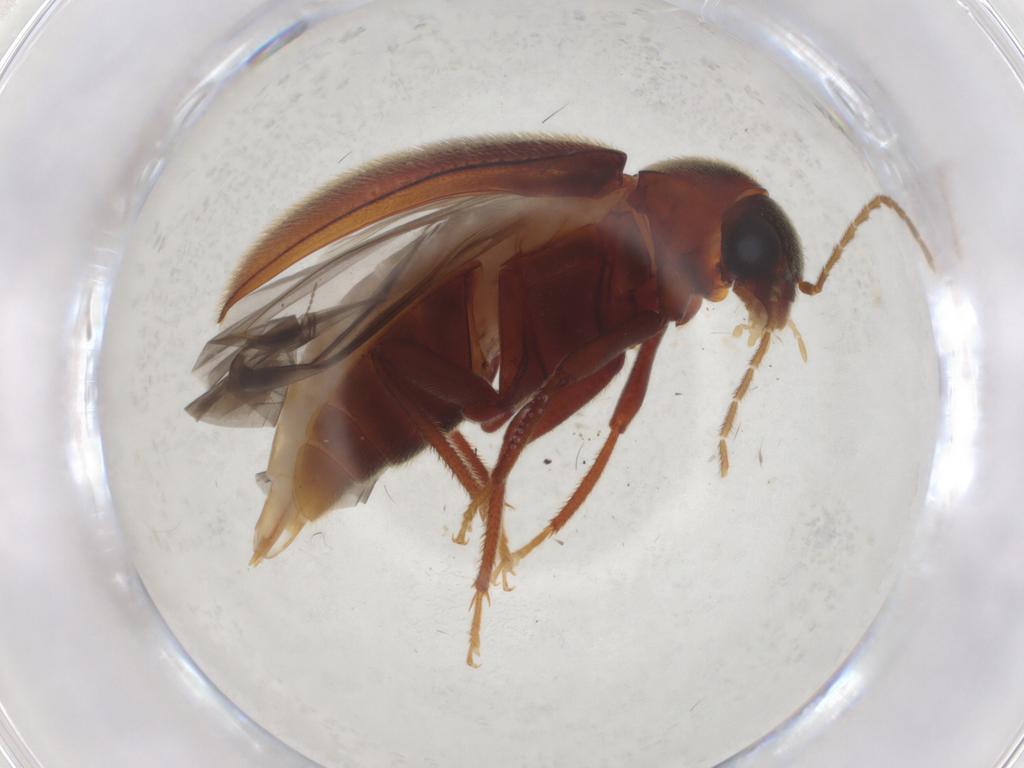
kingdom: Animalia
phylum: Arthropoda
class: Insecta
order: Coleoptera
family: Ptilodactylidae
